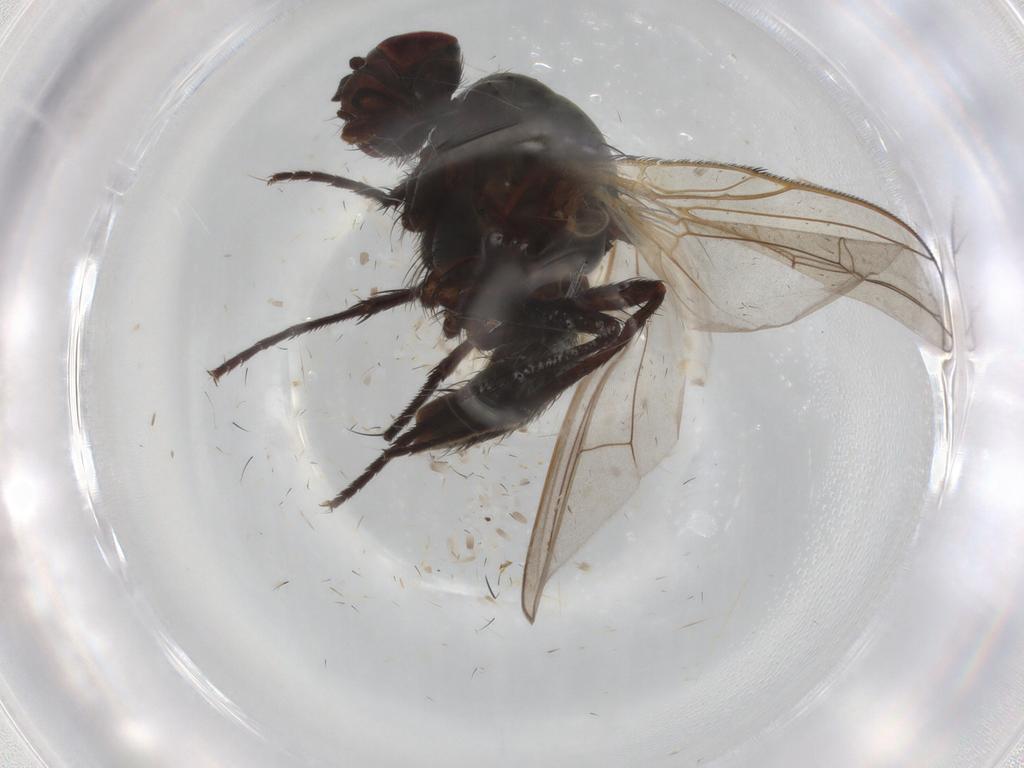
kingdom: Animalia
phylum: Arthropoda
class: Insecta
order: Diptera
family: Anthomyiidae
